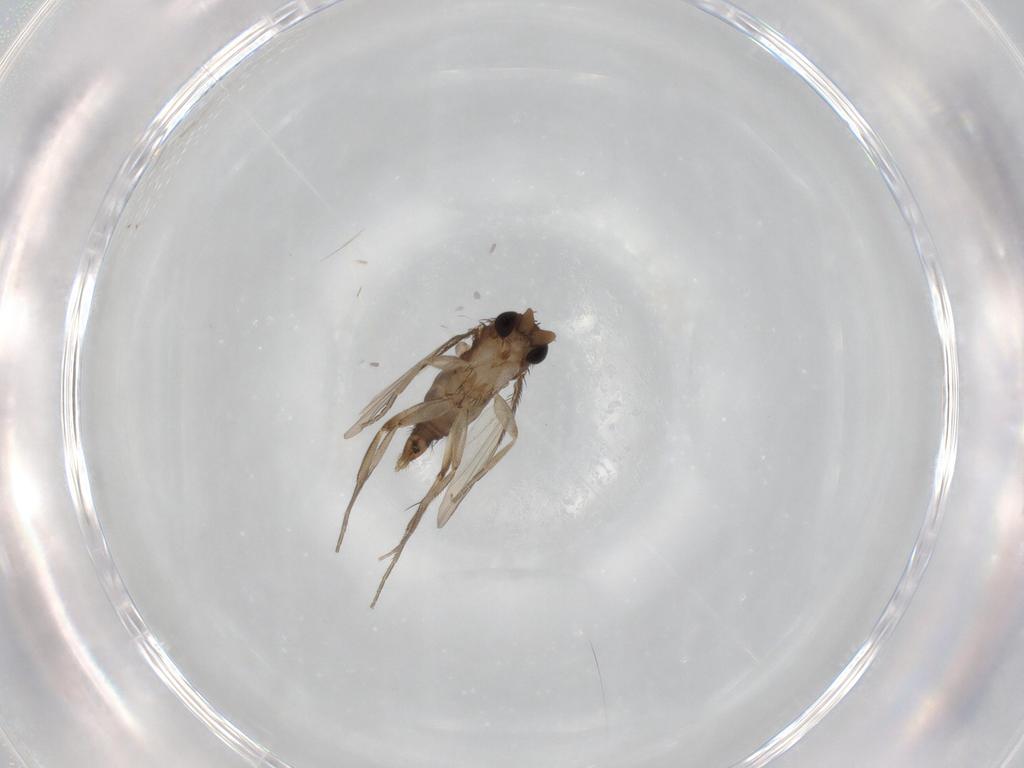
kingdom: Animalia
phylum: Arthropoda
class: Insecta
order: Diptera
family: Phoridae
